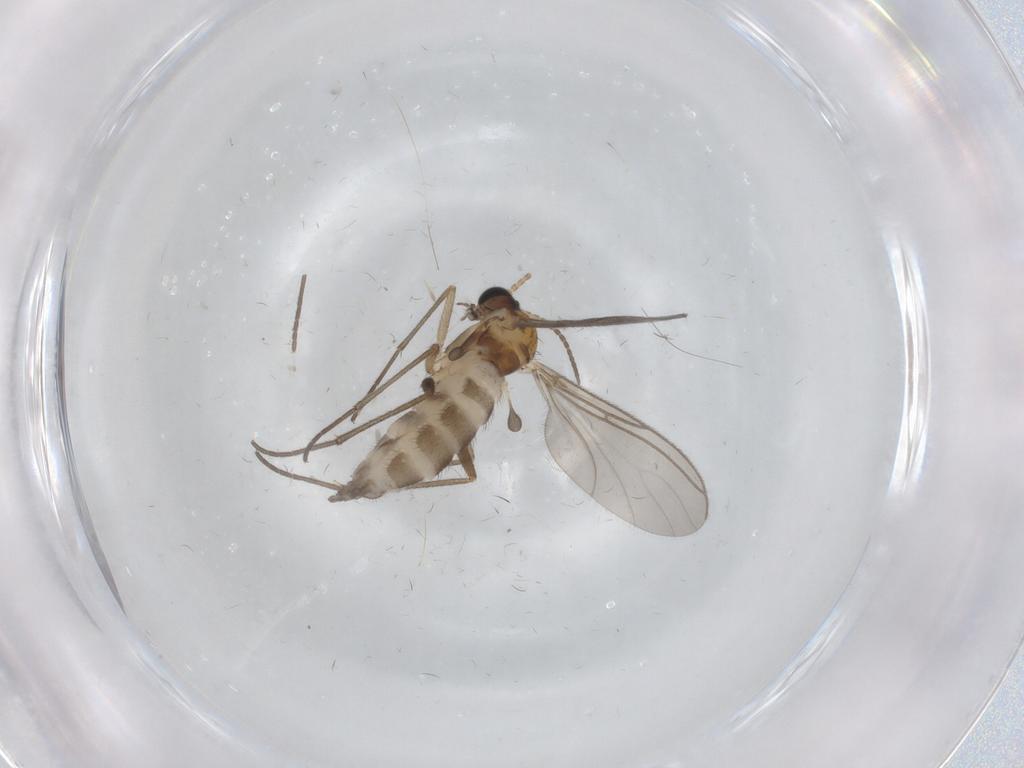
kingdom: Animalia
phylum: Arthropoda
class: Insecta
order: Diptera
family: Sciaridae
